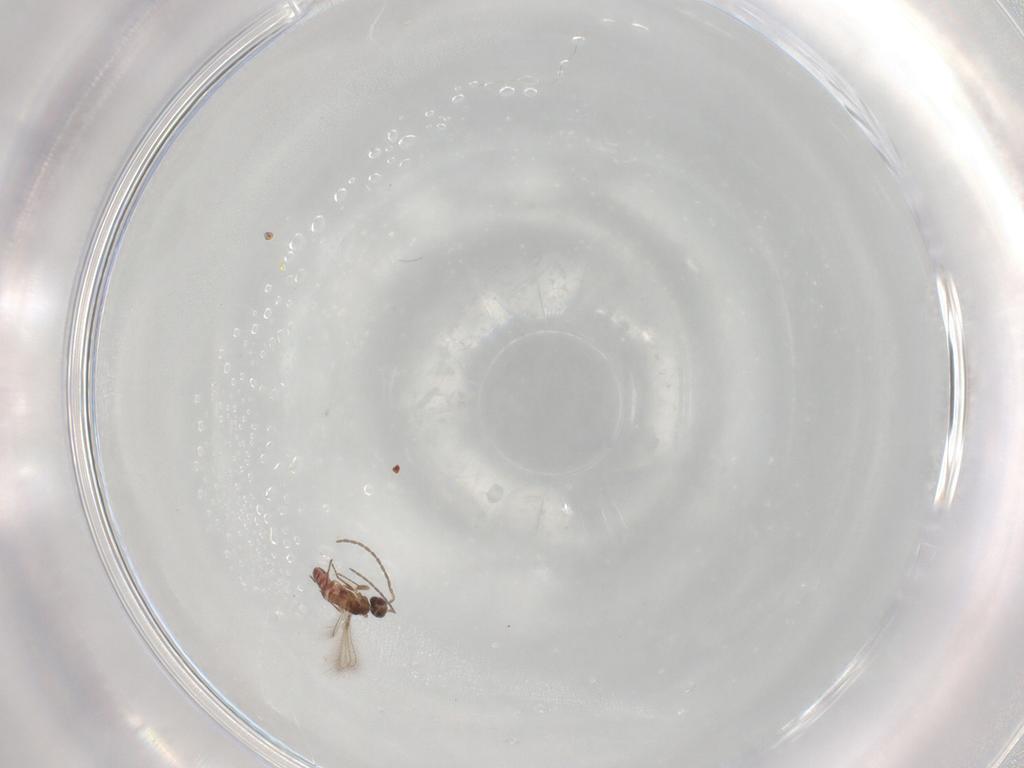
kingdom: Animalia
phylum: Arthropoda
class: Insecta
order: Hymenoptera
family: Mymaridae
